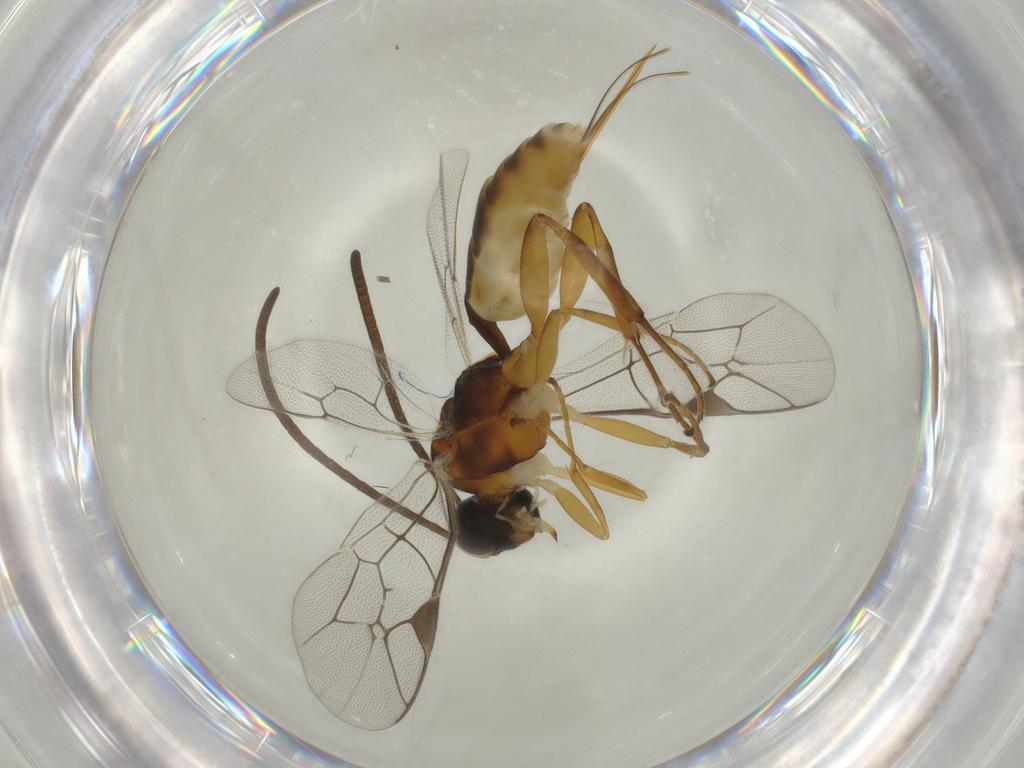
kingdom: Animalia
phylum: Arthropoda
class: Insecta
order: Hymenoptera
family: Ichneumonidae
